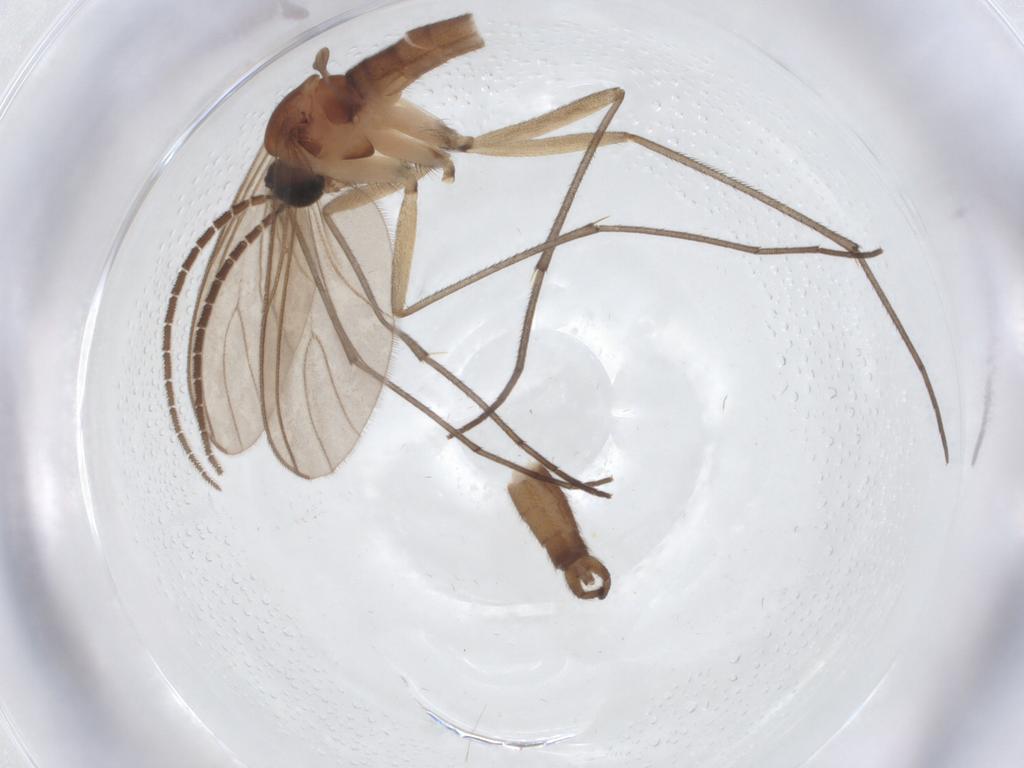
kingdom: Animalia
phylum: Arthropoda
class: Insecta
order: Diptera
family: Sciaridae
